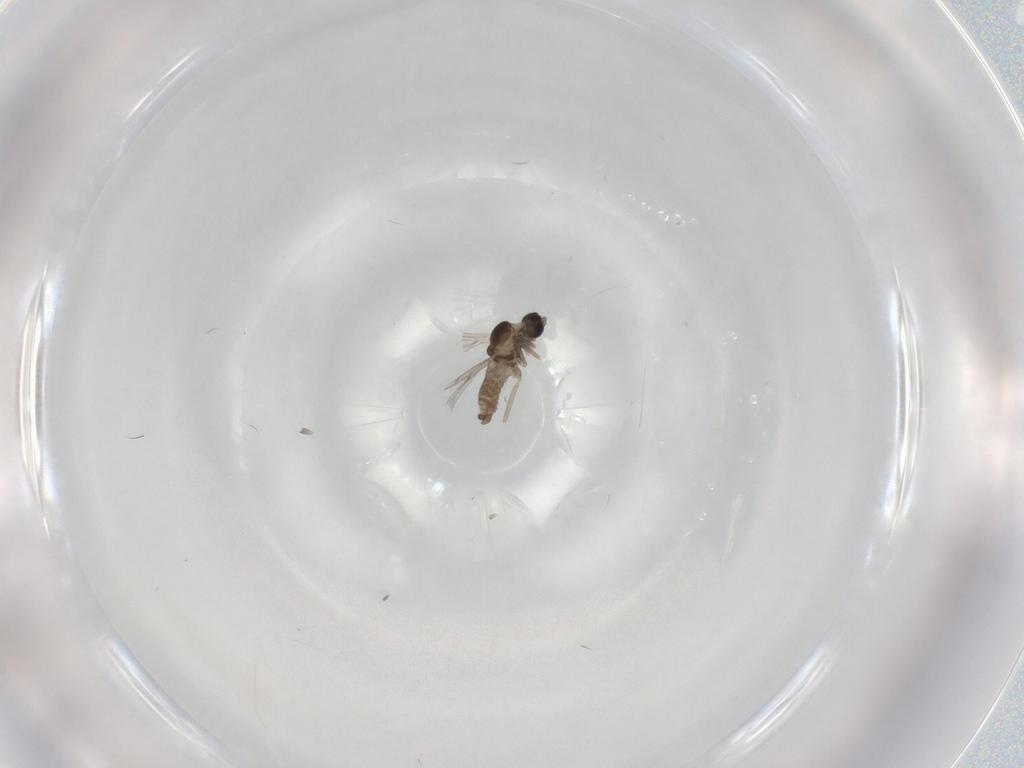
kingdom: Animalia
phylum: Arthropoda
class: Insecta
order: Diptera
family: Cecidomyiidae
